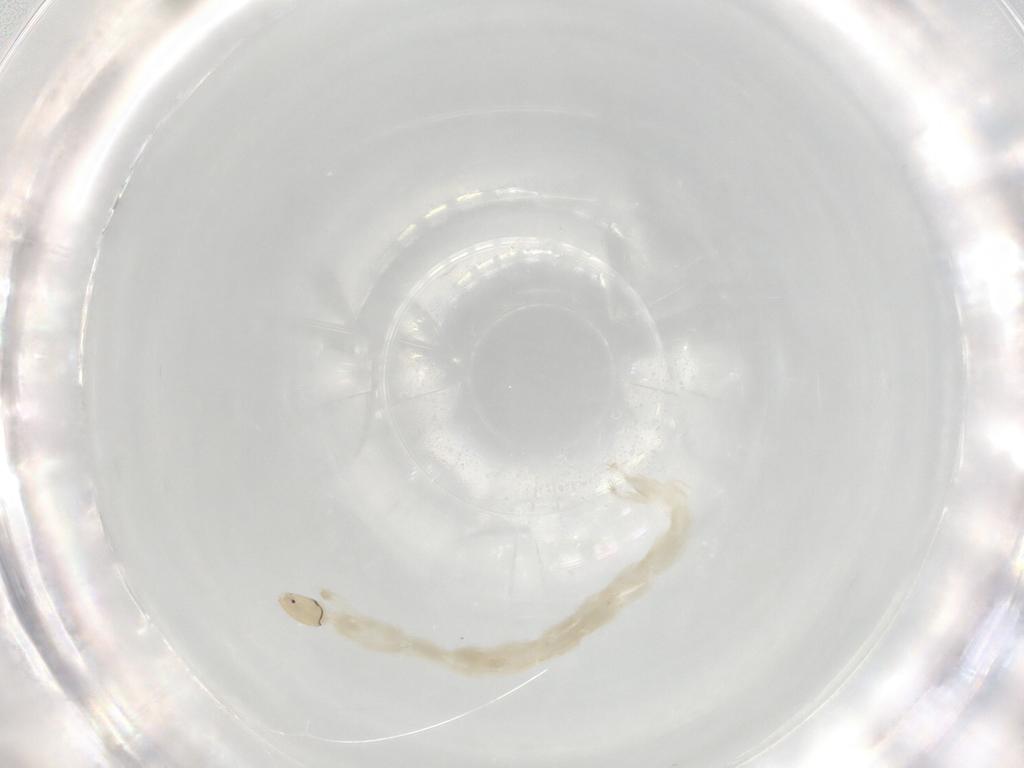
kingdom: Animalia
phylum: Arthropoda
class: Insecta
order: Diptera
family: Chironomidae
